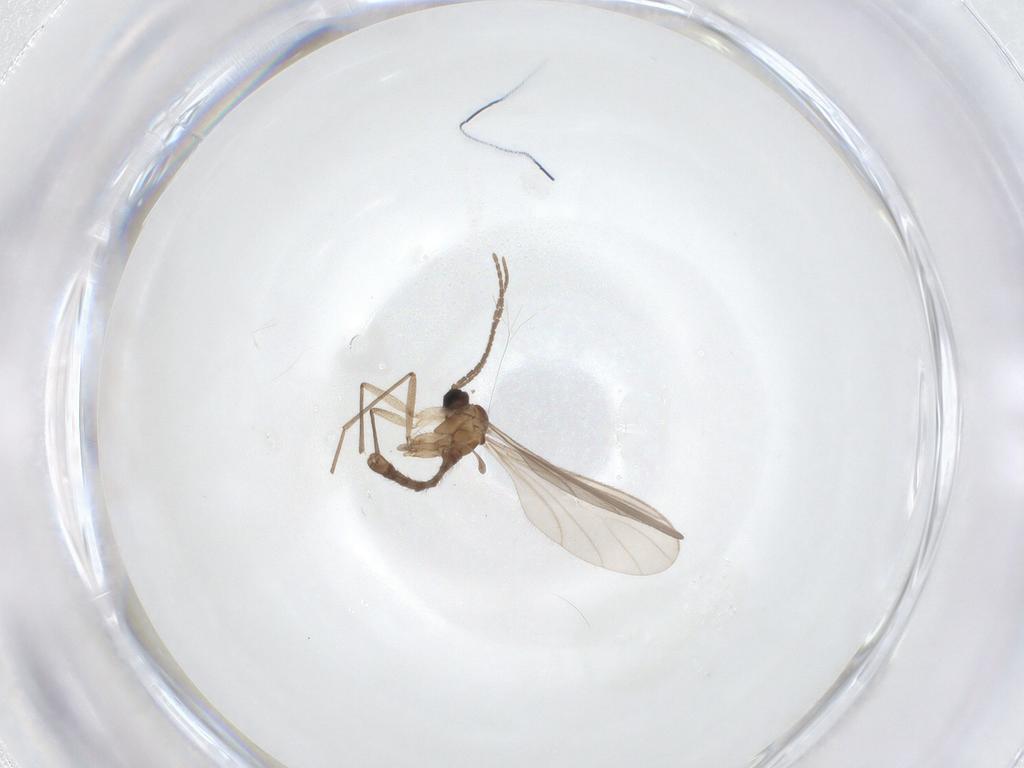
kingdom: Animalia
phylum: Arthropoda
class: Insecta
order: Diptera
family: Sciaridae
